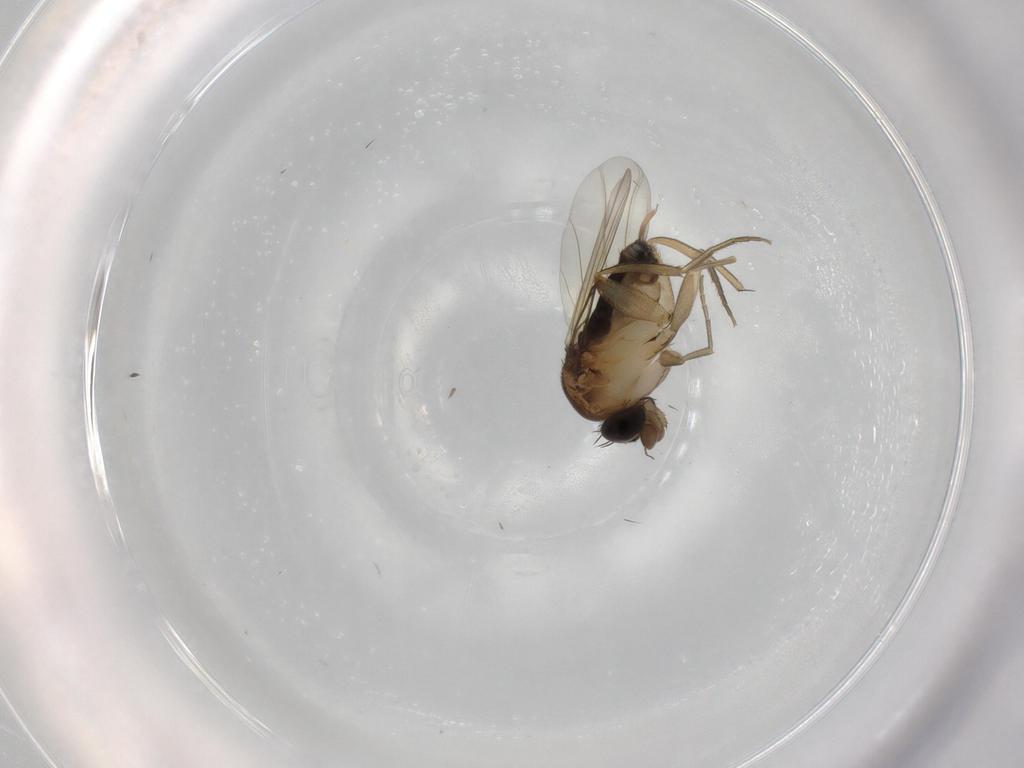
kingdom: Animalia
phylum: Arthropoda
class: Insecta
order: Diptera
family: Phoridae
